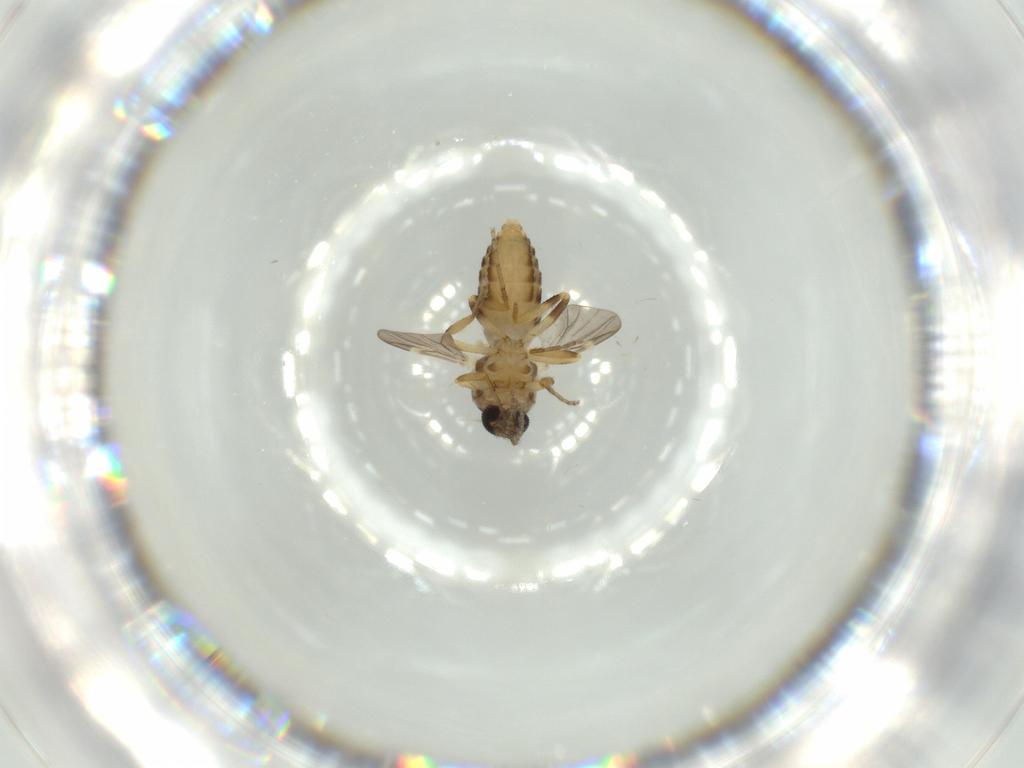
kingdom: Animalia
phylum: Arthropoda
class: Insecta
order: Diptera
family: Ceratopogonidae
